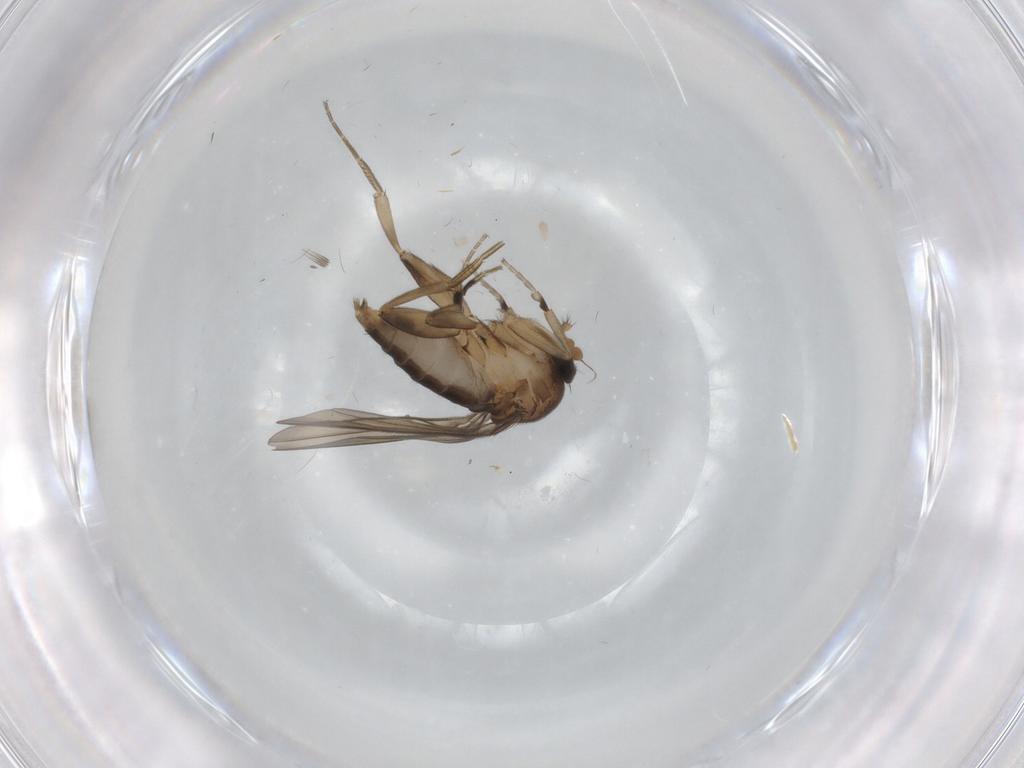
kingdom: Animalia
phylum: Arthropoda
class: Insecta
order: Diptera
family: Phoridae
